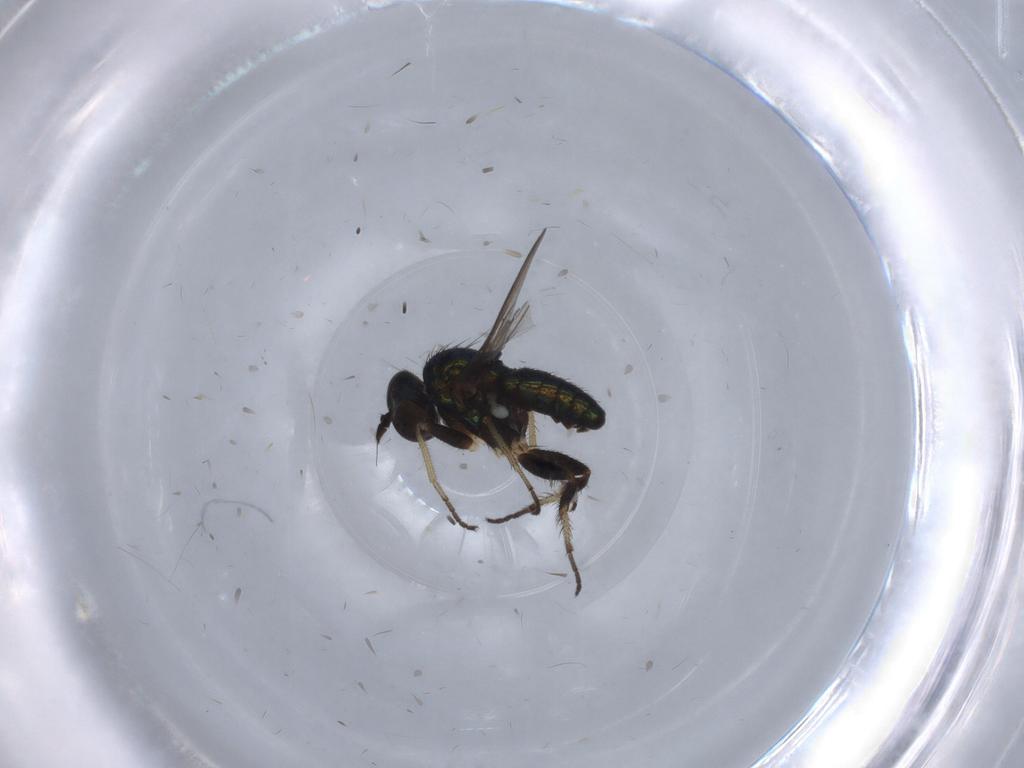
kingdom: Animalia
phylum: Arthropoda
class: Insecta
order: Diptera
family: Dolichopodidae
